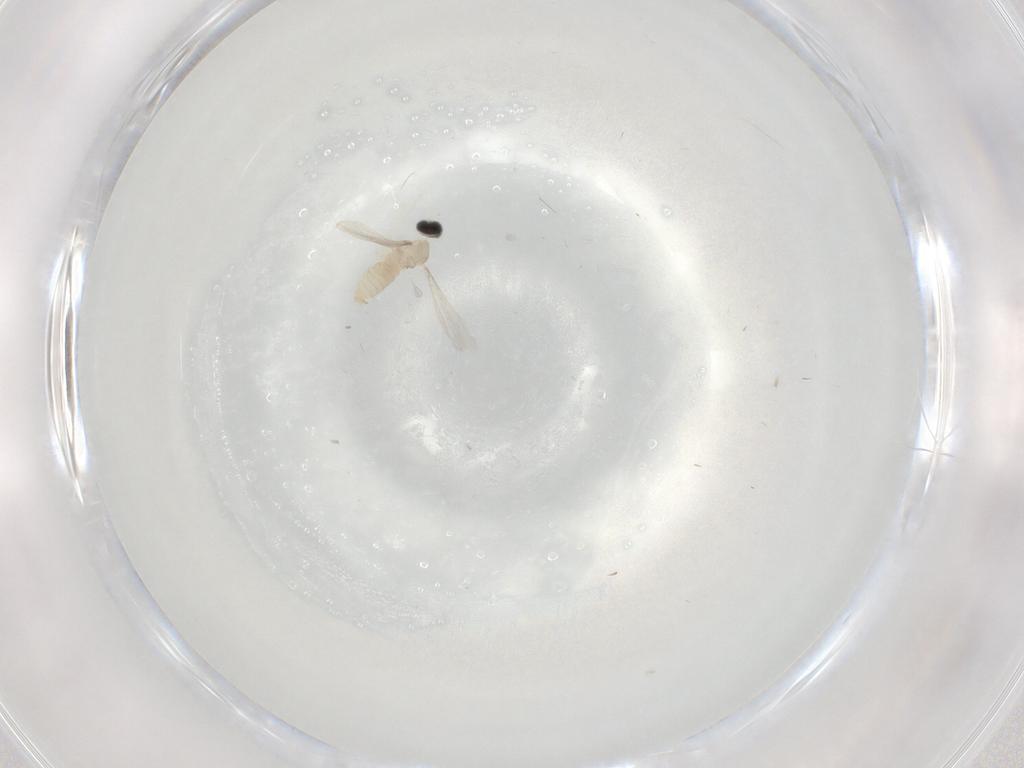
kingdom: Animalia
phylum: Arthropoda
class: Insecta
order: Diptera
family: Cecidomyiidae
